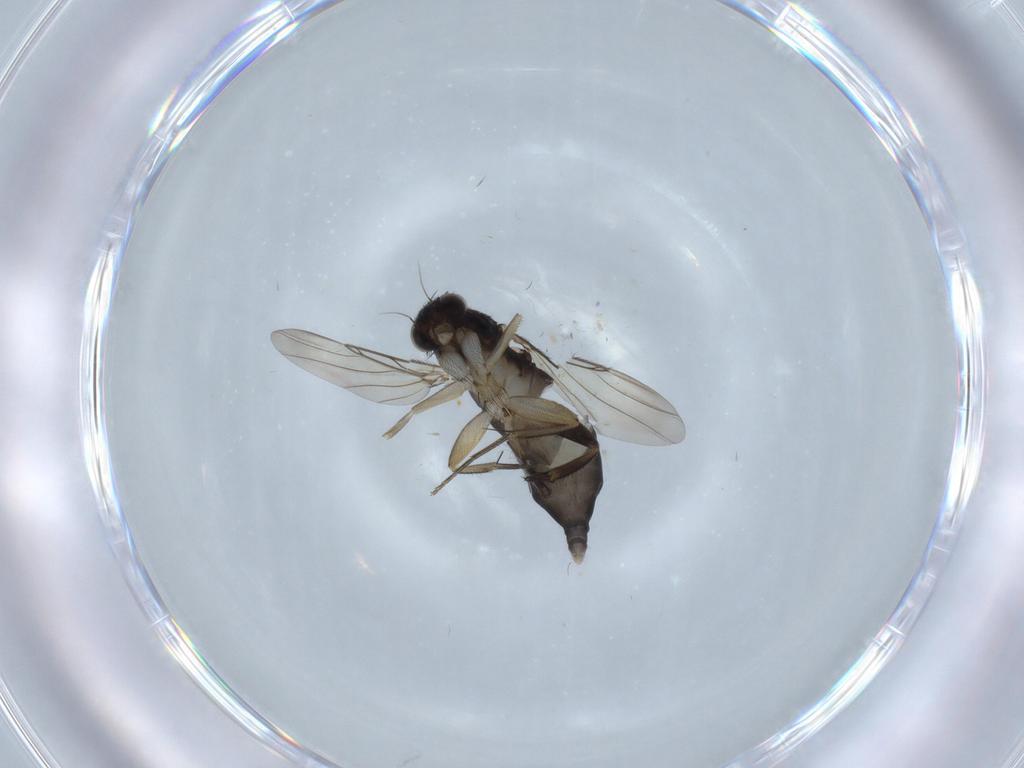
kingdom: Animalia
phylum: Arthropoda
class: Insecta
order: Diptera
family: Phoridae
